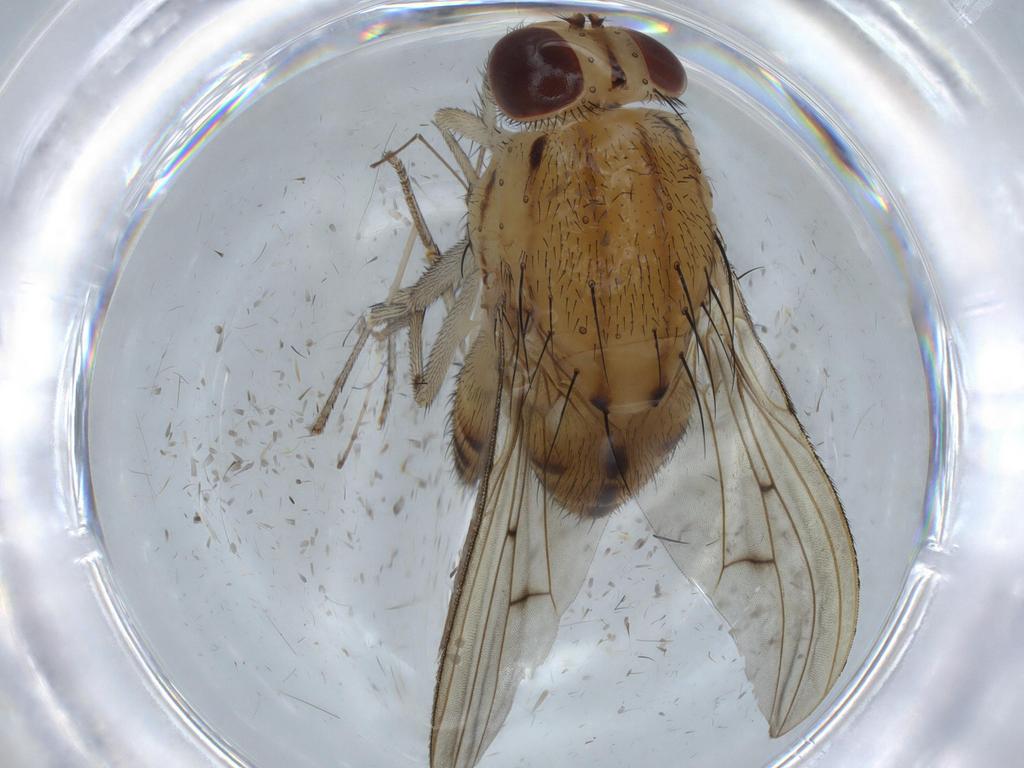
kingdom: Animalia
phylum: Arthropoda
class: Insecta
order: Diptera
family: Lauxaniidae
